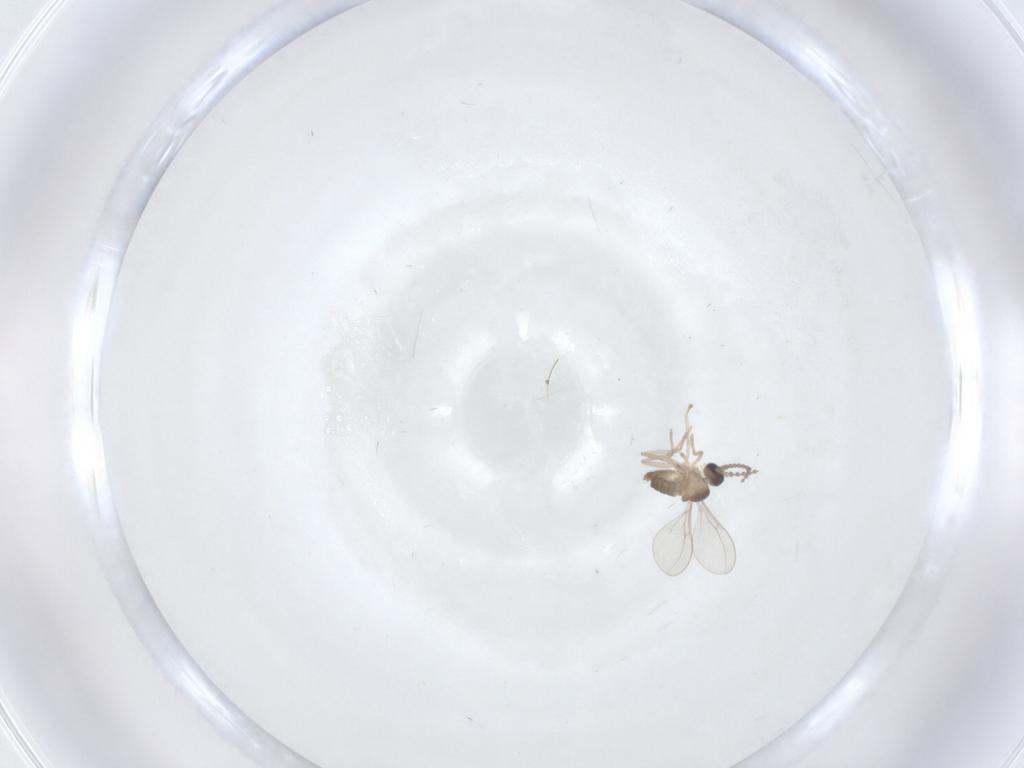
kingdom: Animalia
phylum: Arthropoda
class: Insecta
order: Diptera
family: Cecidomyiidae
